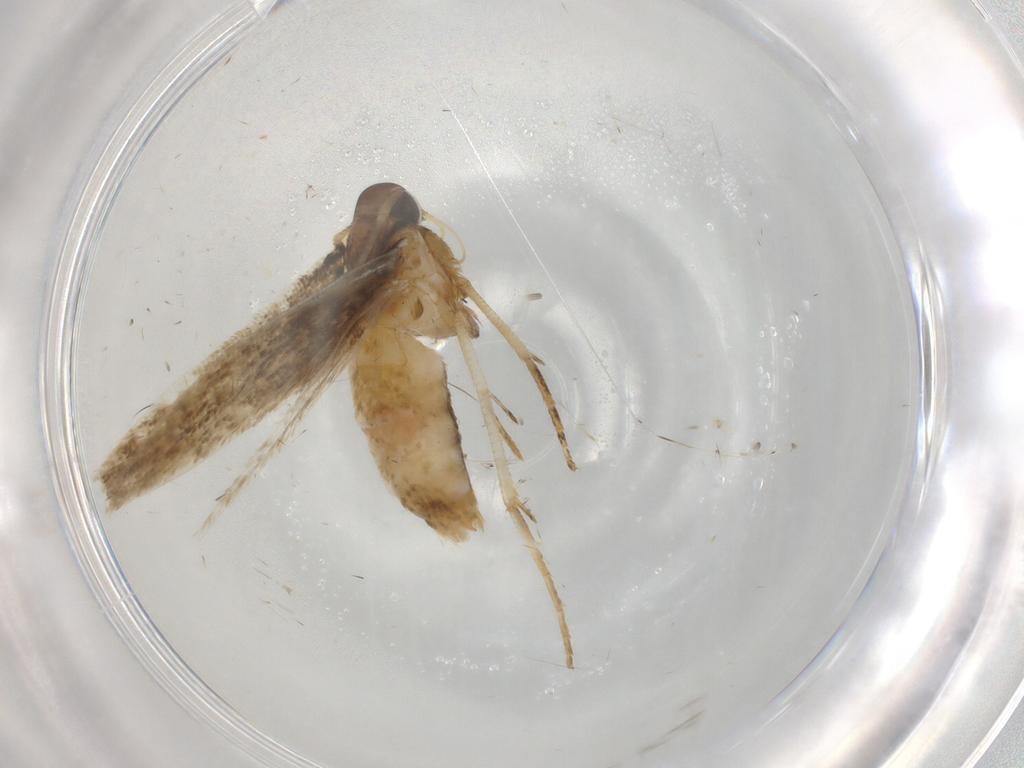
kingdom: Animalia
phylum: Arthropoda
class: Insecta
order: Lepidoptera
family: Cosmopterigidae
